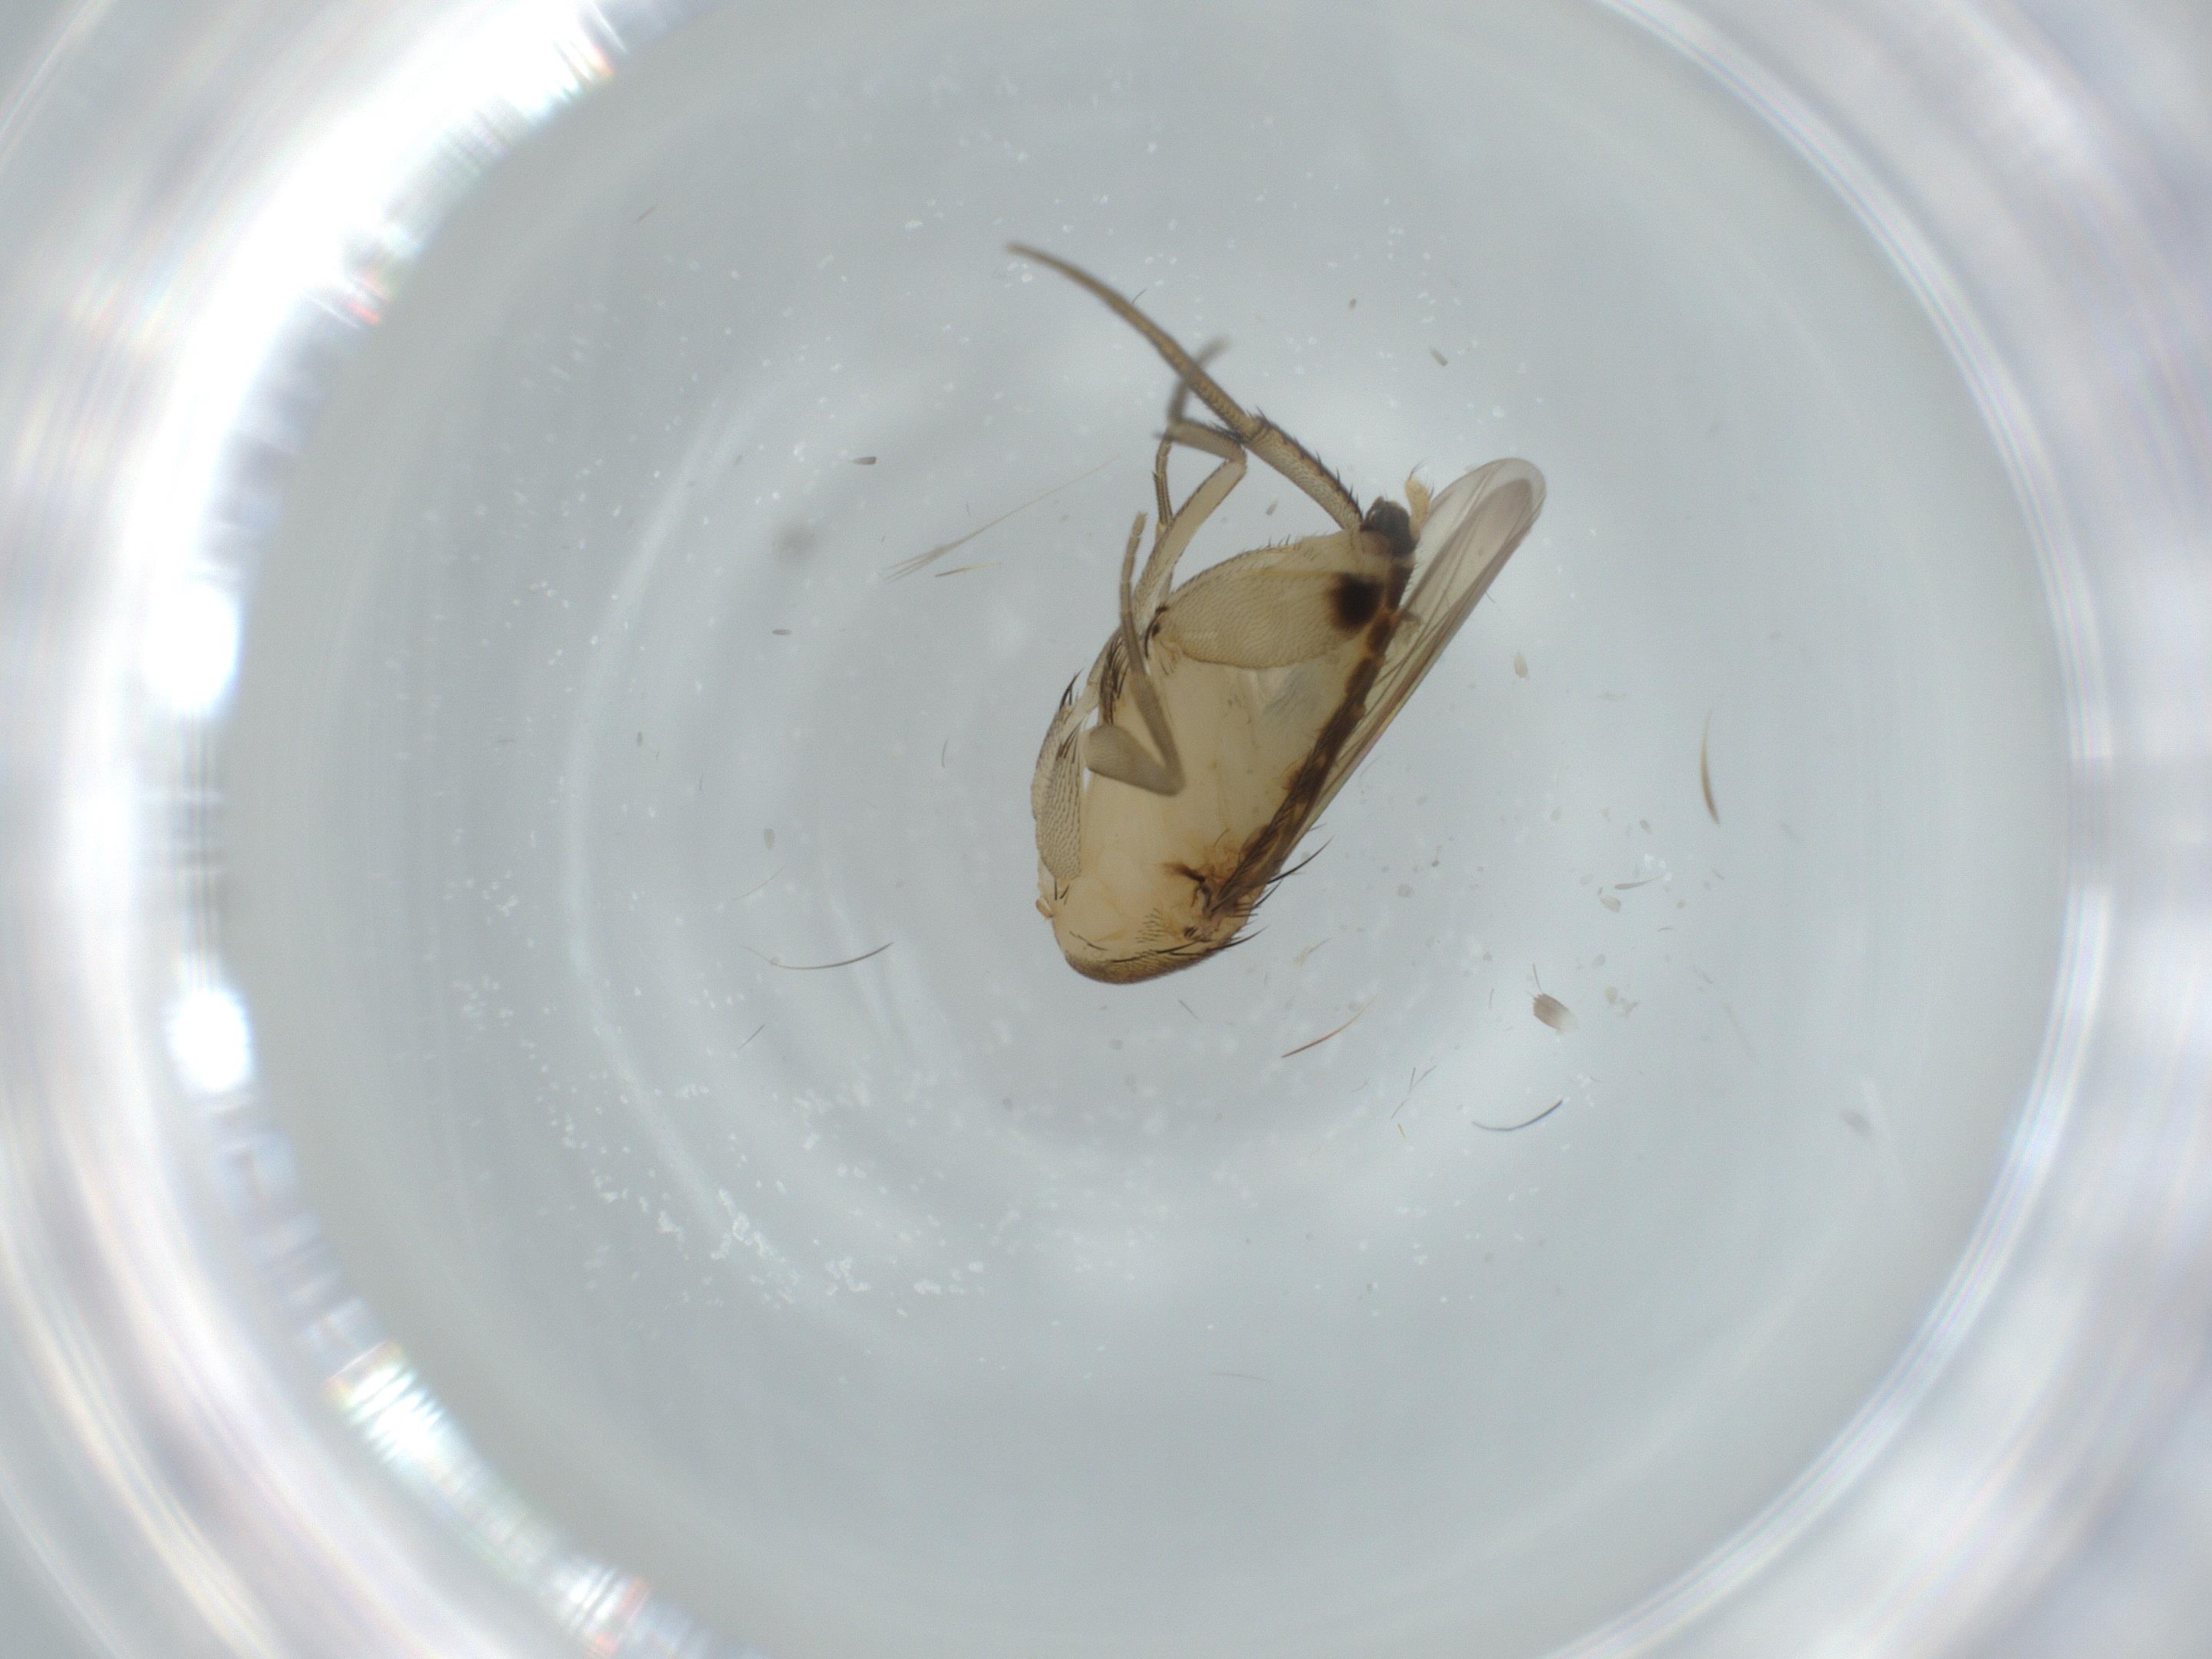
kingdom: Animalia
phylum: Arthropoda
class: Insecta
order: Diptera
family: Phoridae
